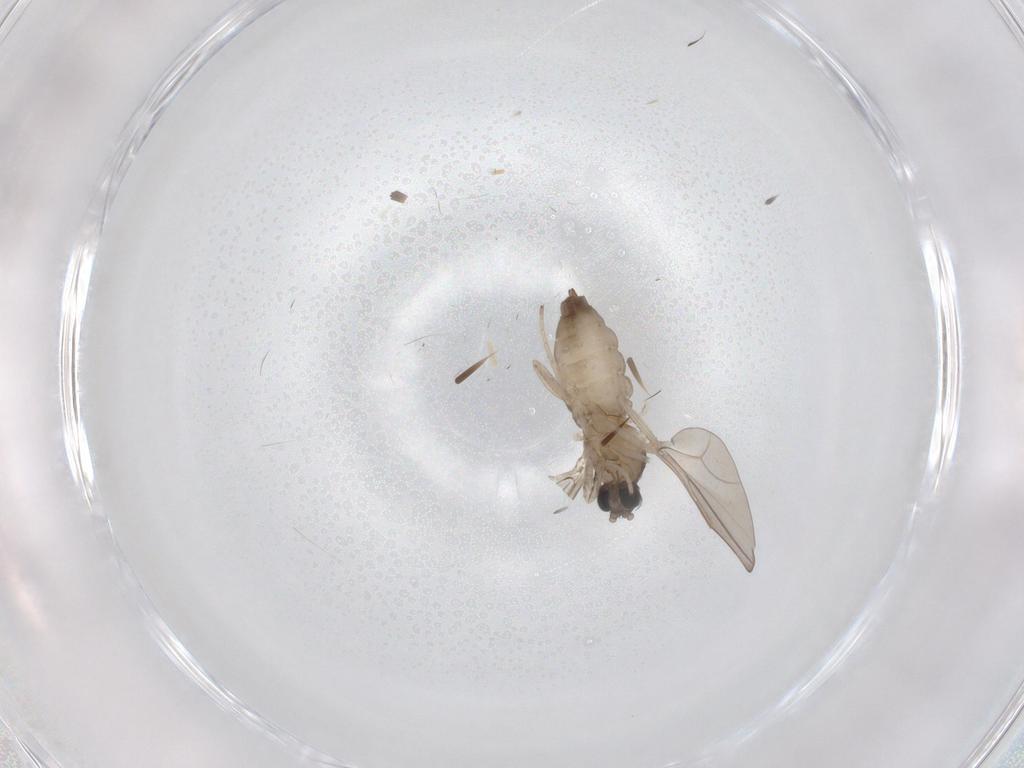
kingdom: Animalia
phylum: Arthropoda
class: Insecta
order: Diptera
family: Cecidomyiidae
